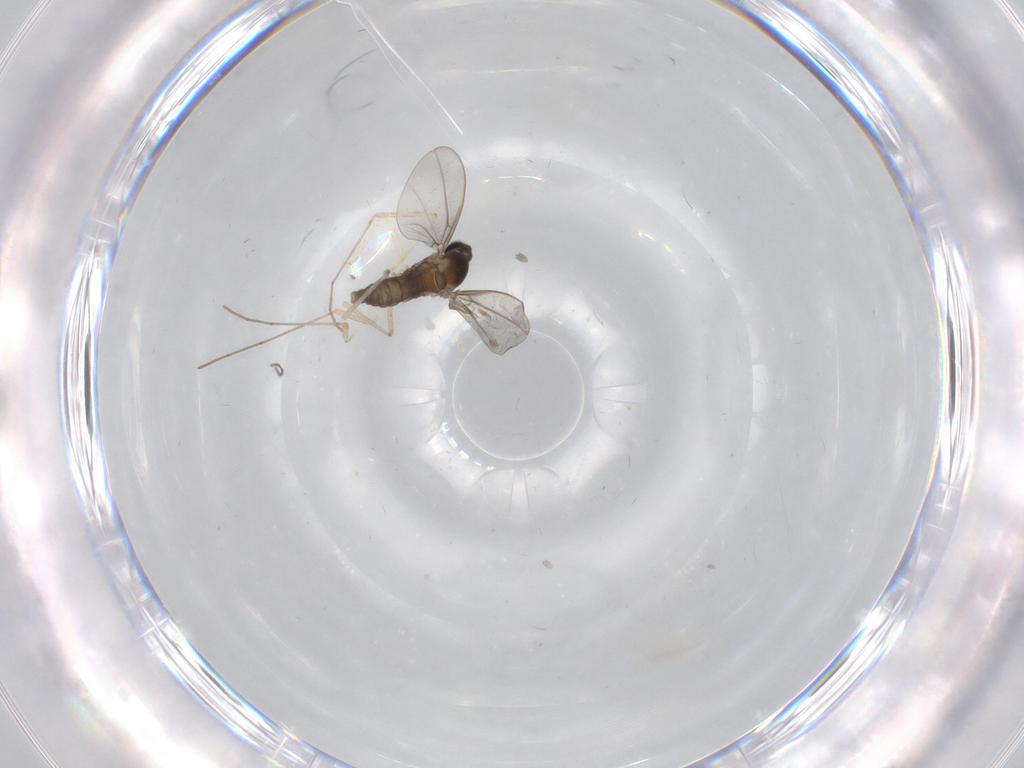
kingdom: Animalia
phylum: Arthropoda
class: Insecta
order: Diptera
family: Cecidomyiidae
